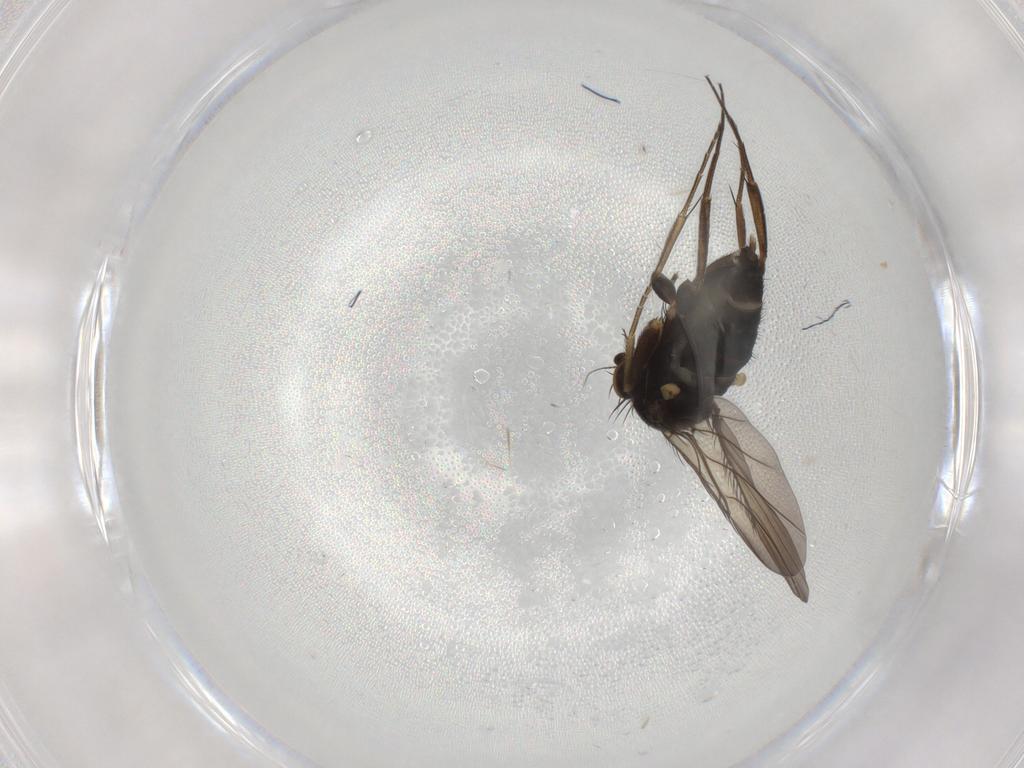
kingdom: Animalia
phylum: Arthropoda
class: Insecta
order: Diptera
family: Phoridae
